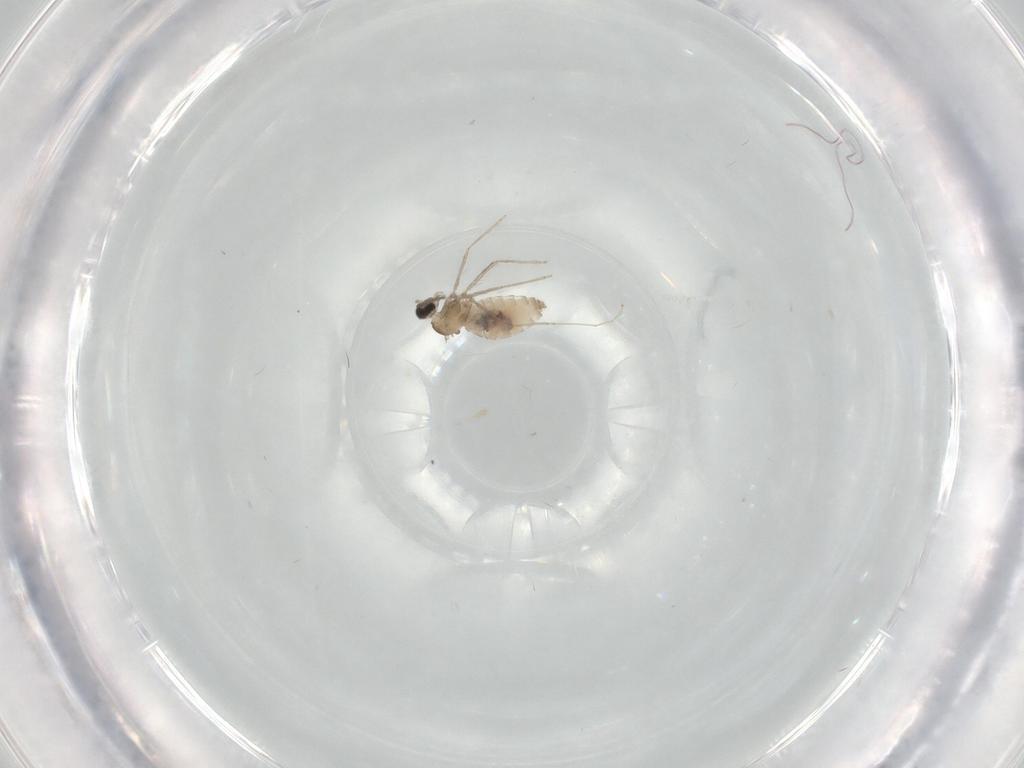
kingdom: Animalia
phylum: Arthropoda
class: Insecta
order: Diptera
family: Cecidomyiidae
